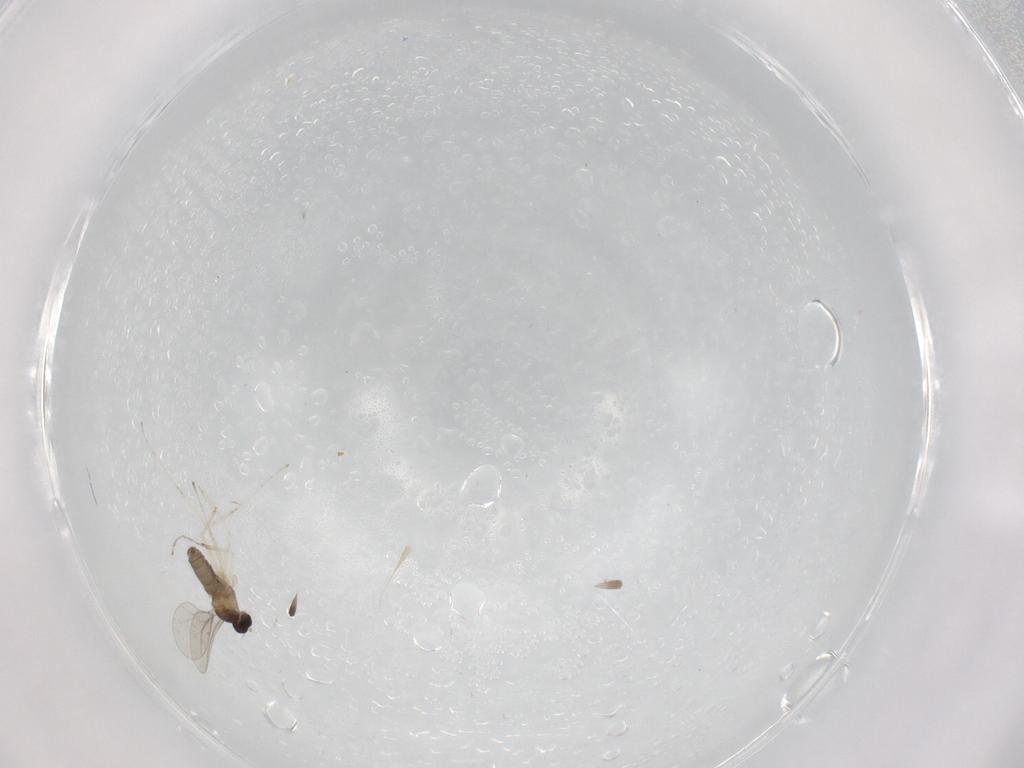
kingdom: Animalia
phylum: Arthropoda
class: Insecta
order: Diptera
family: Cecidomyiidae
